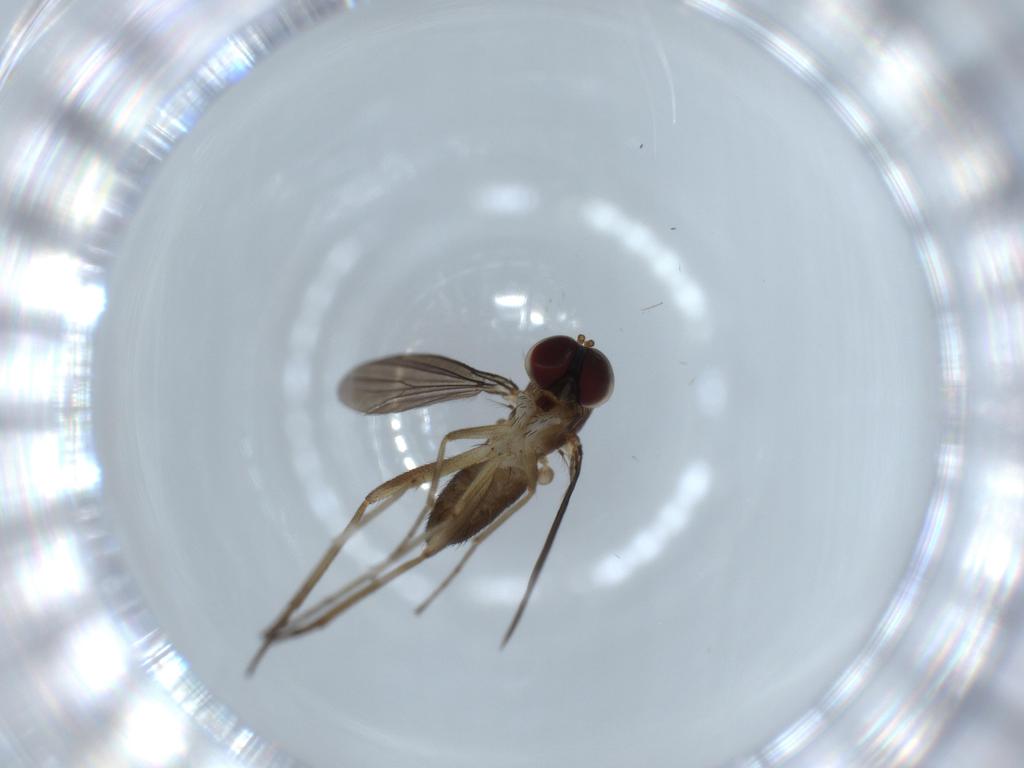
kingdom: Animalia
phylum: Arthropoda
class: Insecta
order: Diptera
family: Dolichopodidae
